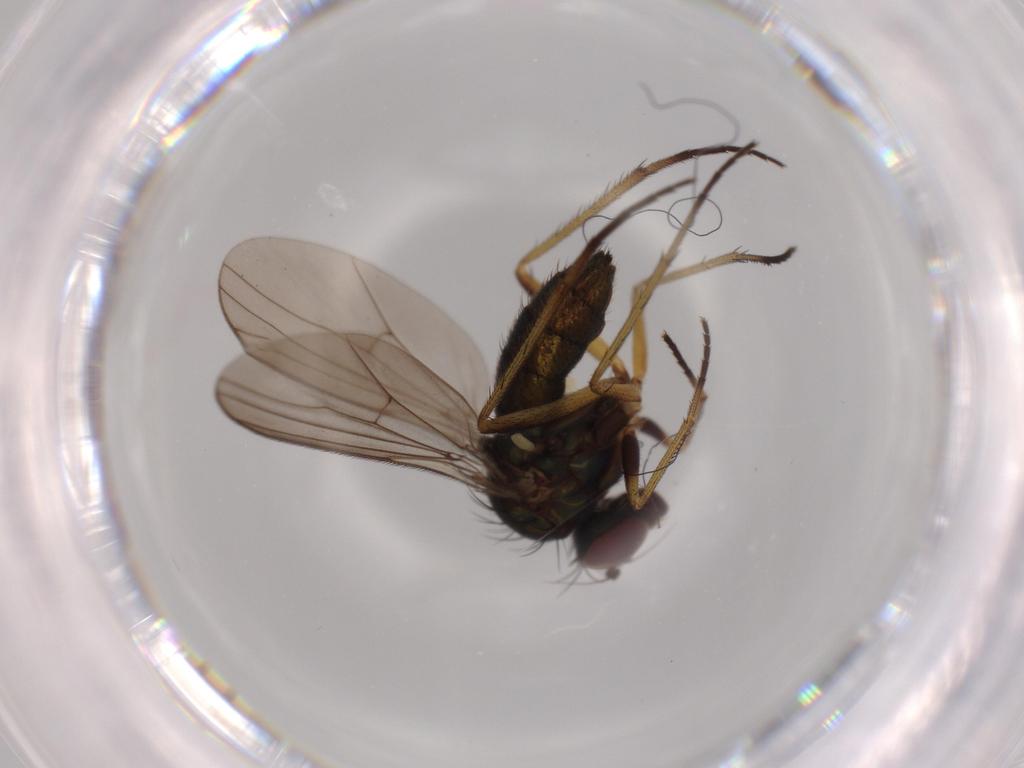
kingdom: Animalia
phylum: Arthropoda
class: Insecta
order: Diptera
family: Dolichopodidae
